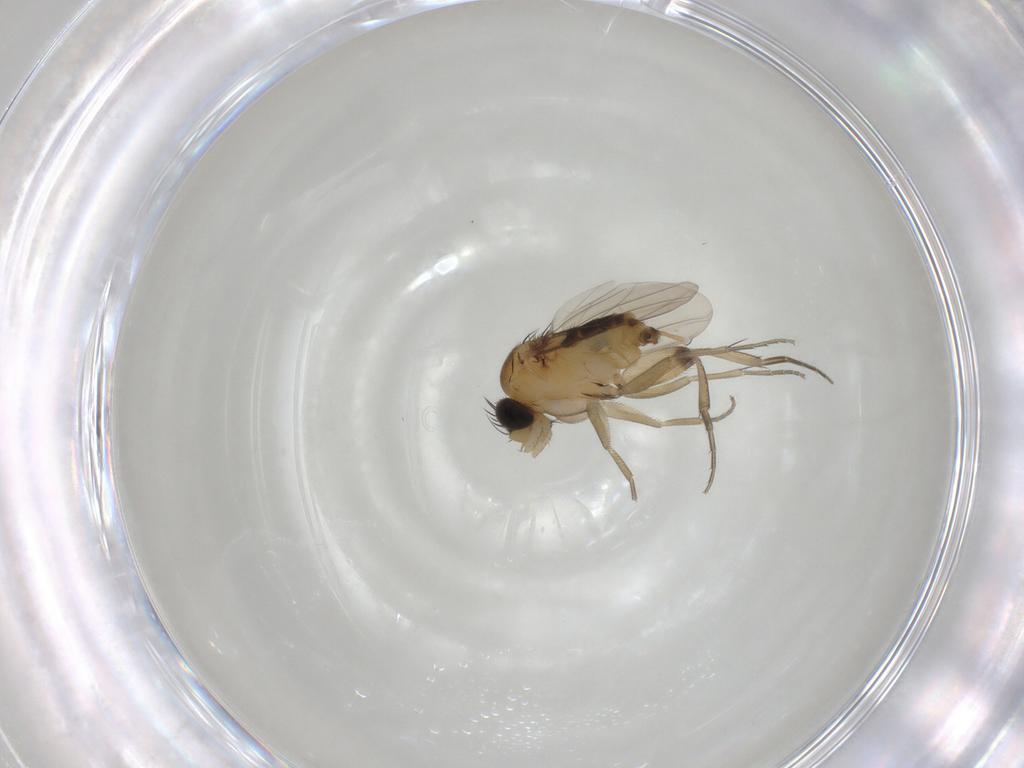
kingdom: Animalia
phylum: Arthropoda
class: Insecta
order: Diptera
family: Phoridae
